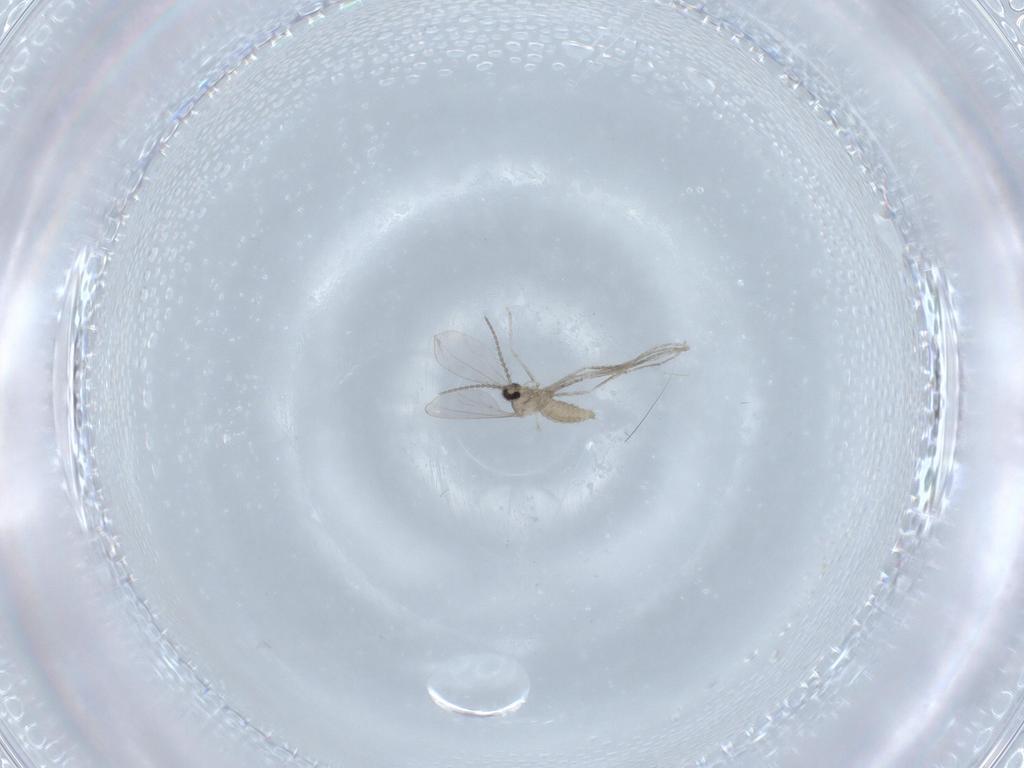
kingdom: Animalia
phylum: Arthropoda
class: Insecta
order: Diptera
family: Cecidomyiidae
